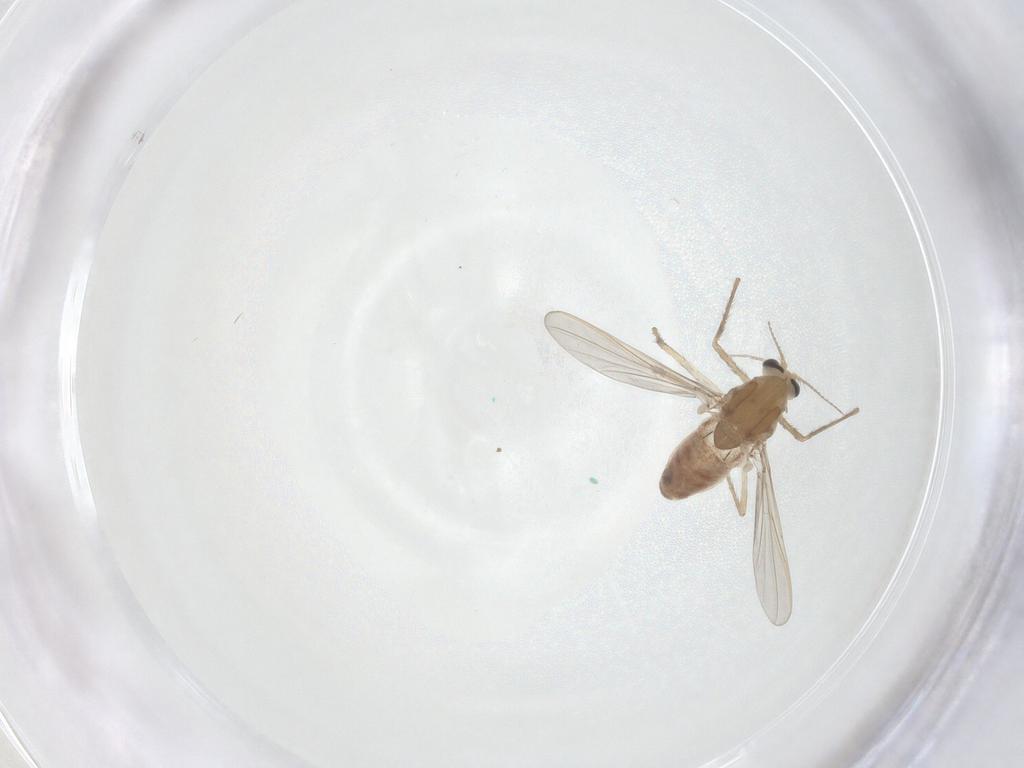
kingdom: Animalia
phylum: Arthropoda
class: Insecta
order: Diptera
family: Chironomidae
